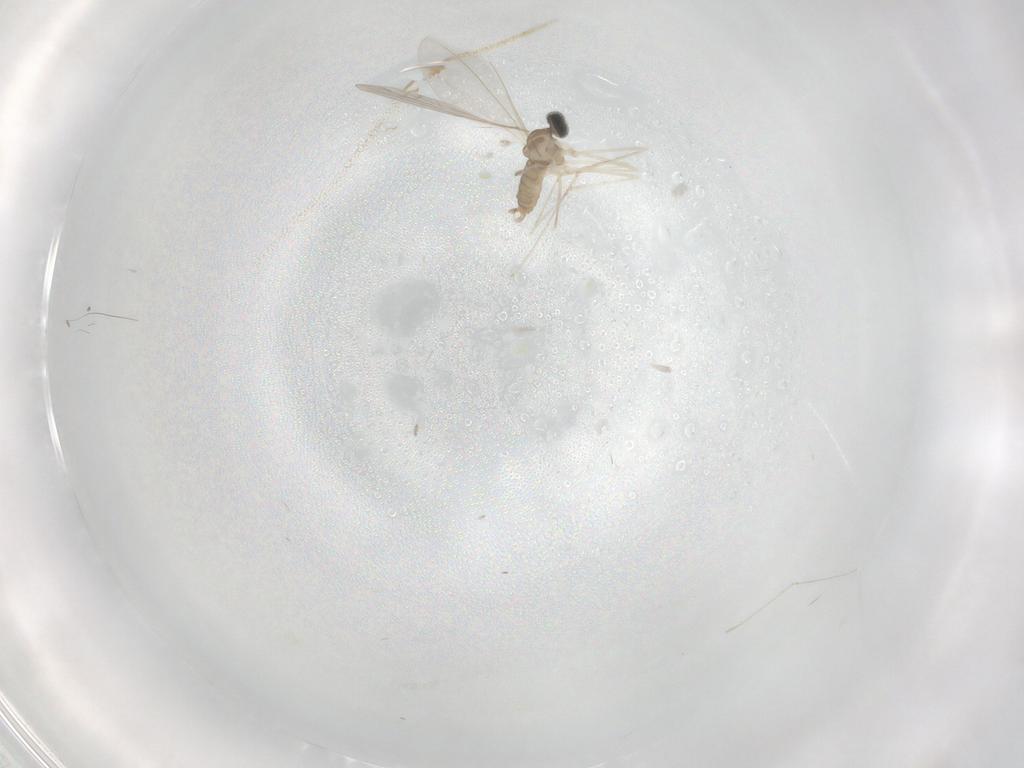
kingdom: Animalia
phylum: Arthropoda
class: Insecta
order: Diptera
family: Cecidomyiidae
